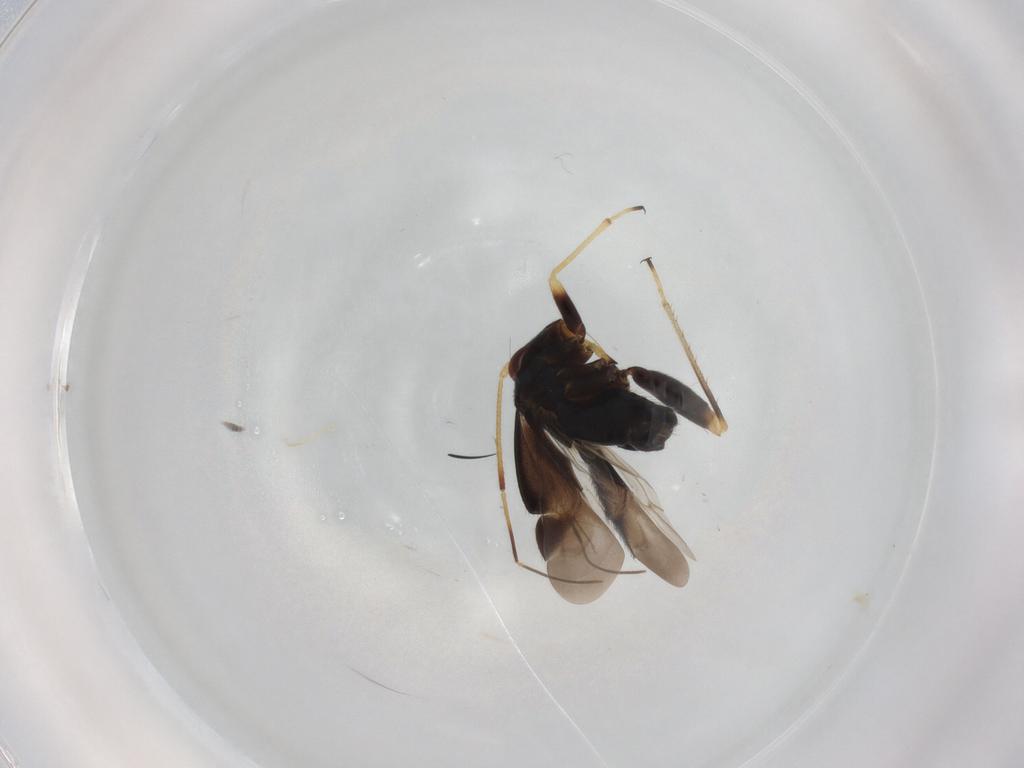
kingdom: Animalia
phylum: Arthropoda
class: Insecta
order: Hemiptera
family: Miridae
